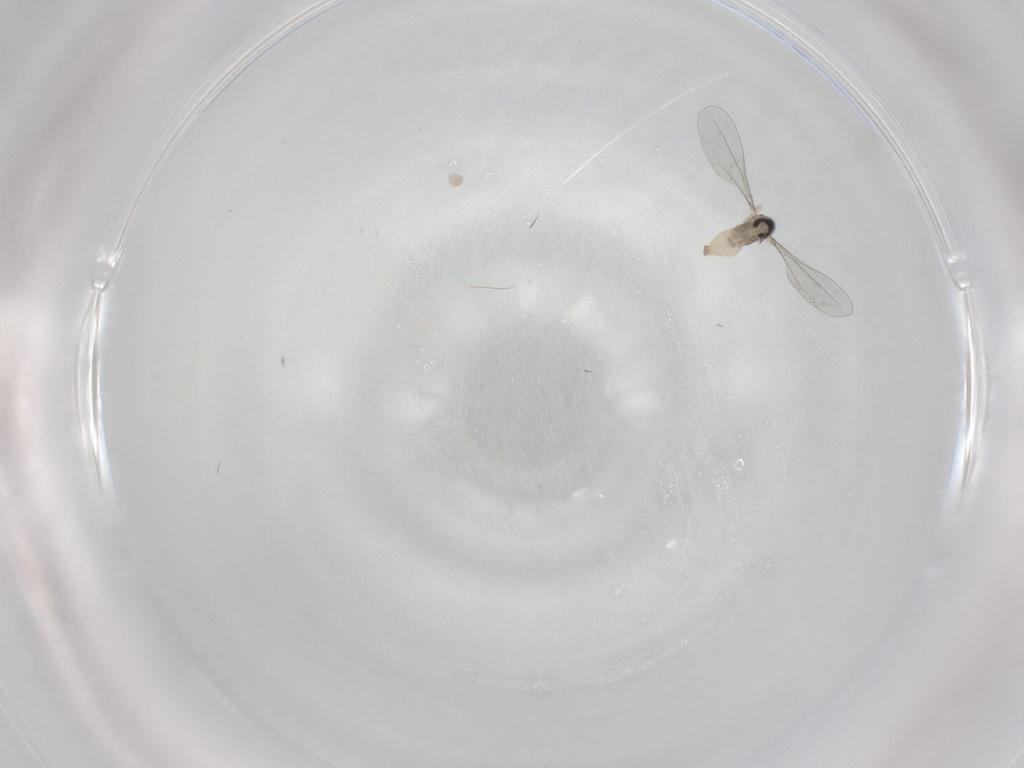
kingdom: Animalia
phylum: Arthropoda
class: Insecta
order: Diptera
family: Cecidomyiidae
